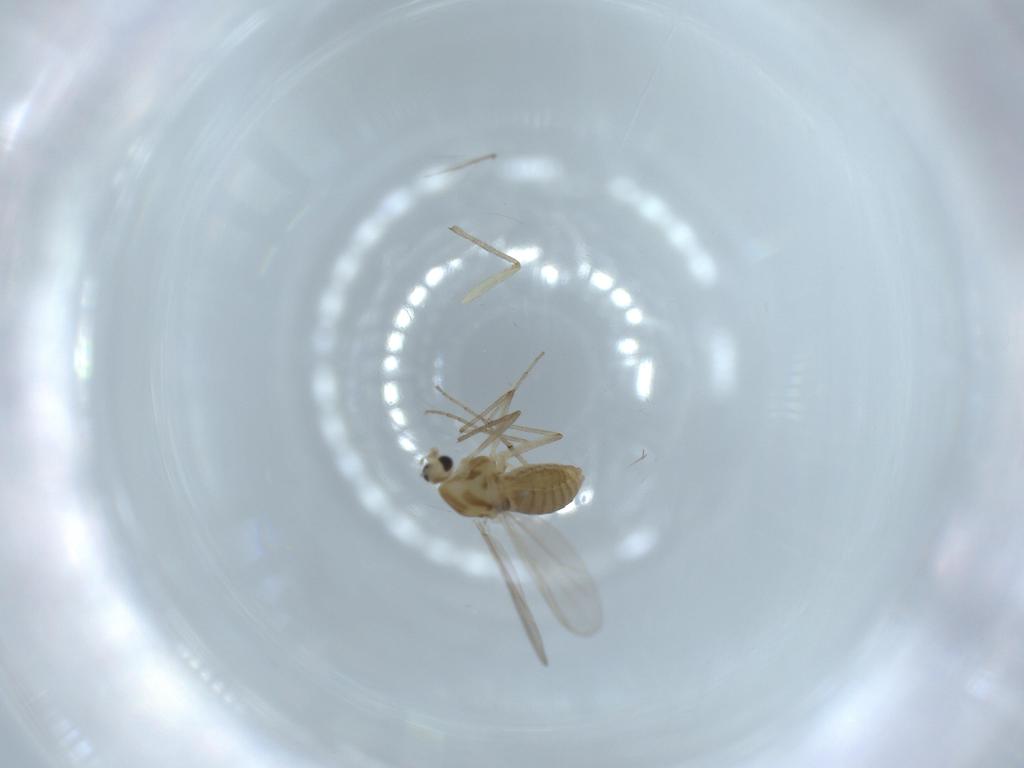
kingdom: Animalia
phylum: Arthropoda
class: Insecta
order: Diptera
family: Chironomidae
